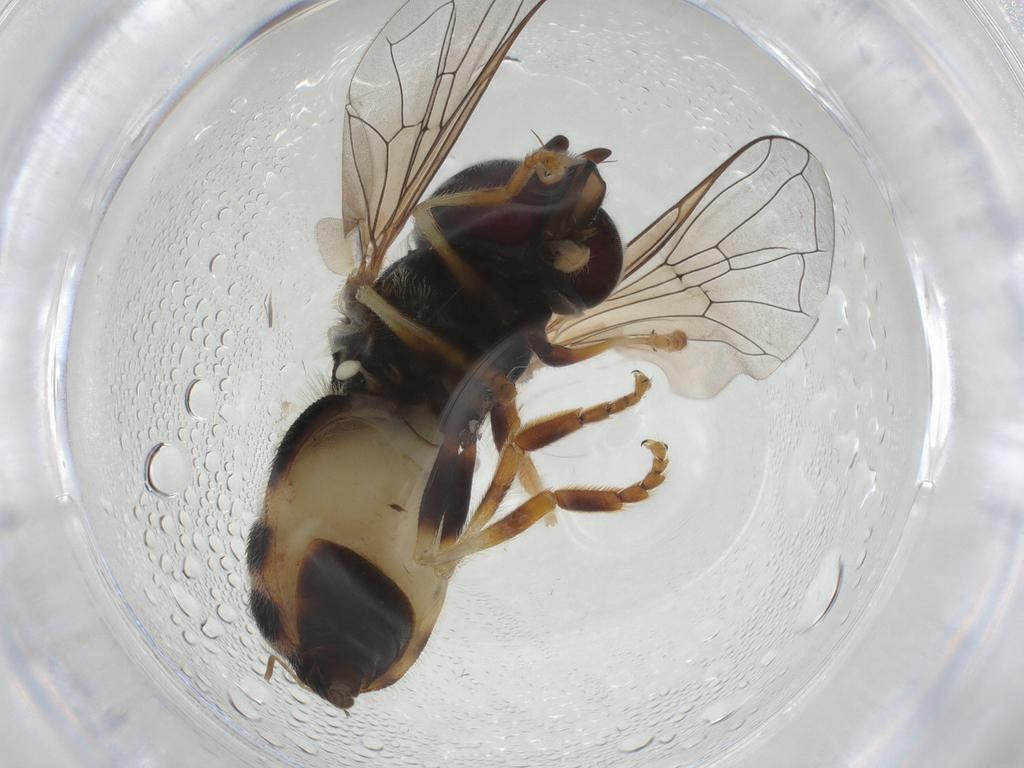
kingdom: Animalia
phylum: Arthropoda
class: Insecta
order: Diptera
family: Syrphidae
